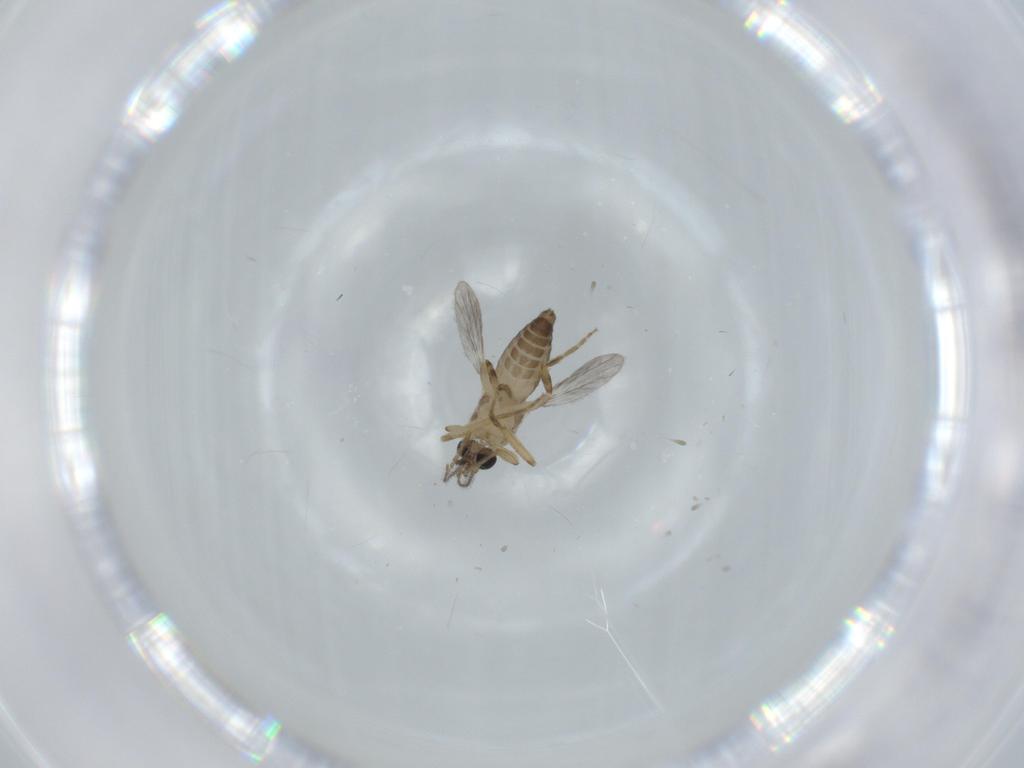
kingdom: Animalia
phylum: Arthropoda
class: Insecta
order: Diptera
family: Ceratopogonidae
